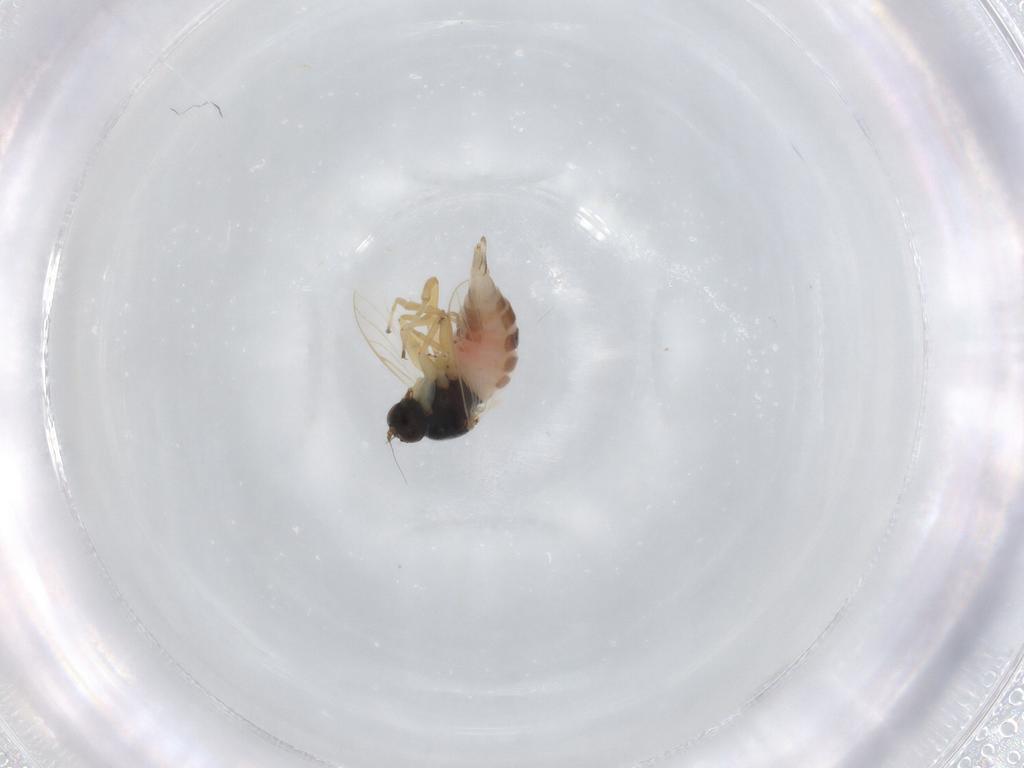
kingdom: Animalia
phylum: Arthropoda
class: Insecta
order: Diptera
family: Hybotidae
